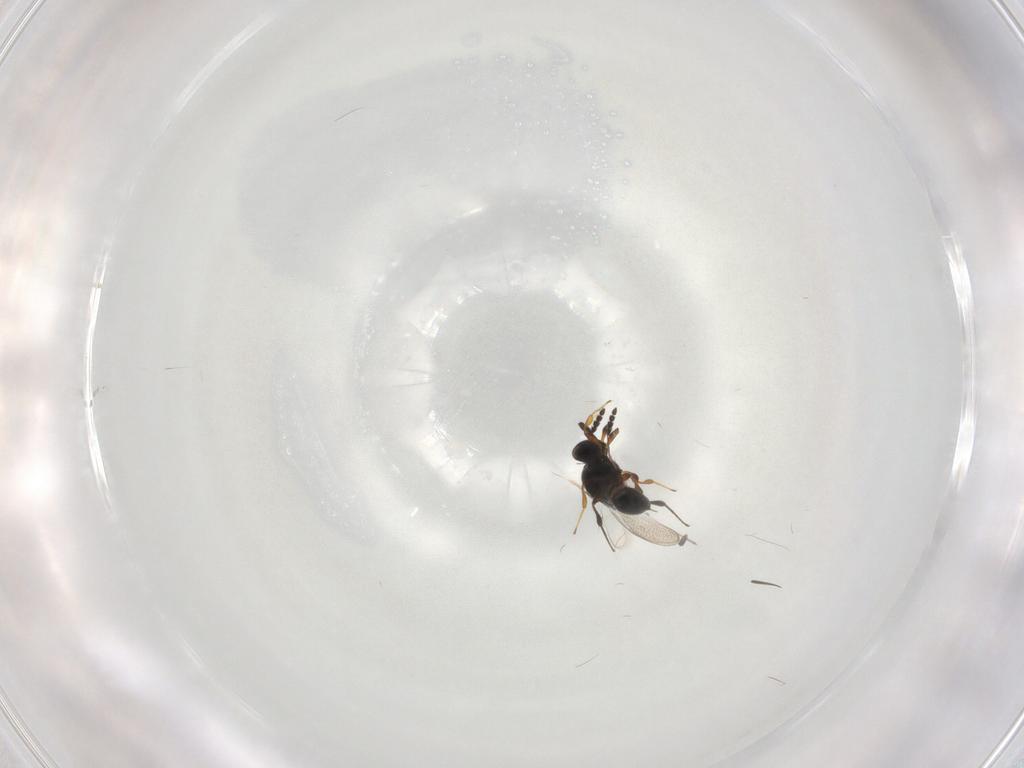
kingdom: Animalia
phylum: Arthropoda
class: Insecta
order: Hymenoptera
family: Platygastridae
